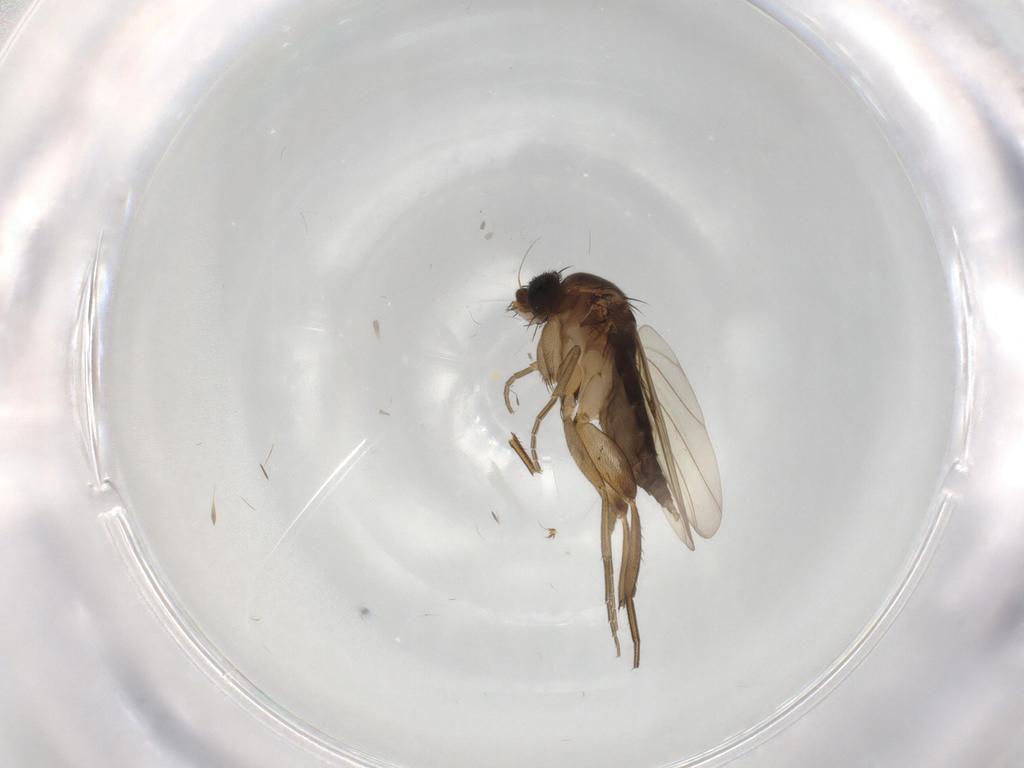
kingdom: Animalia
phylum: Arthropoda
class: Insecta
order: Diptera
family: Phoridae
